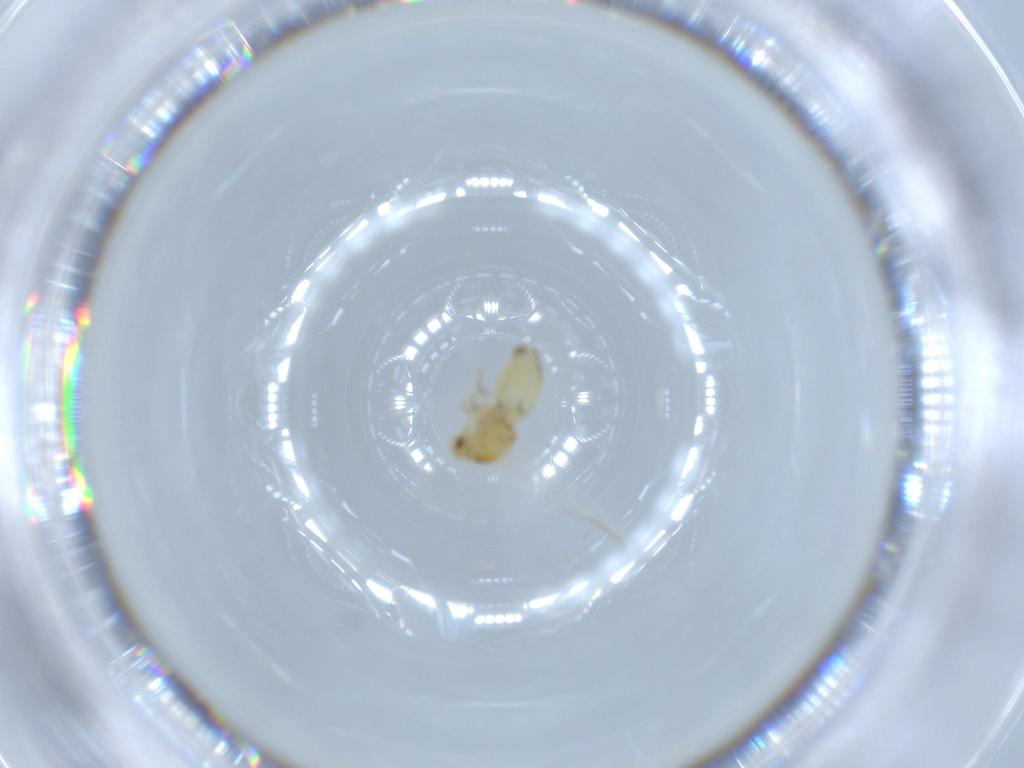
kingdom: Animalia
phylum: Arthropoda
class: Insecta
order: Hemiptera
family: Aleyrodidae
